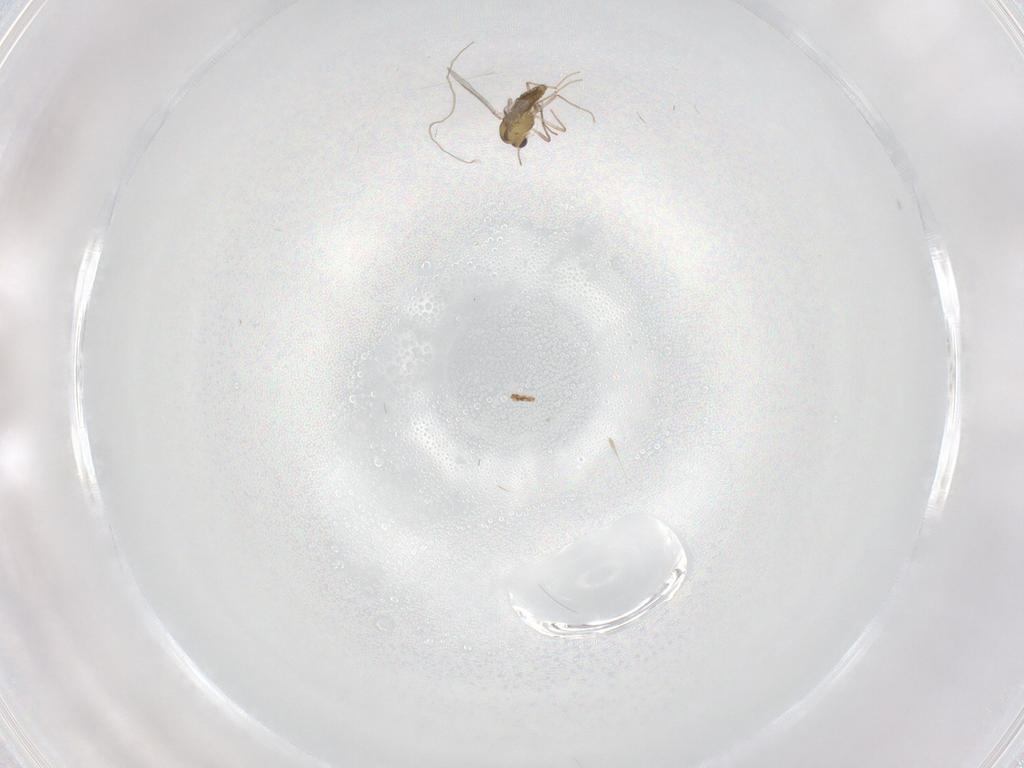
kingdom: Animalia
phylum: Arthropoda
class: Insecta
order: Diptera
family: Chironomidae
